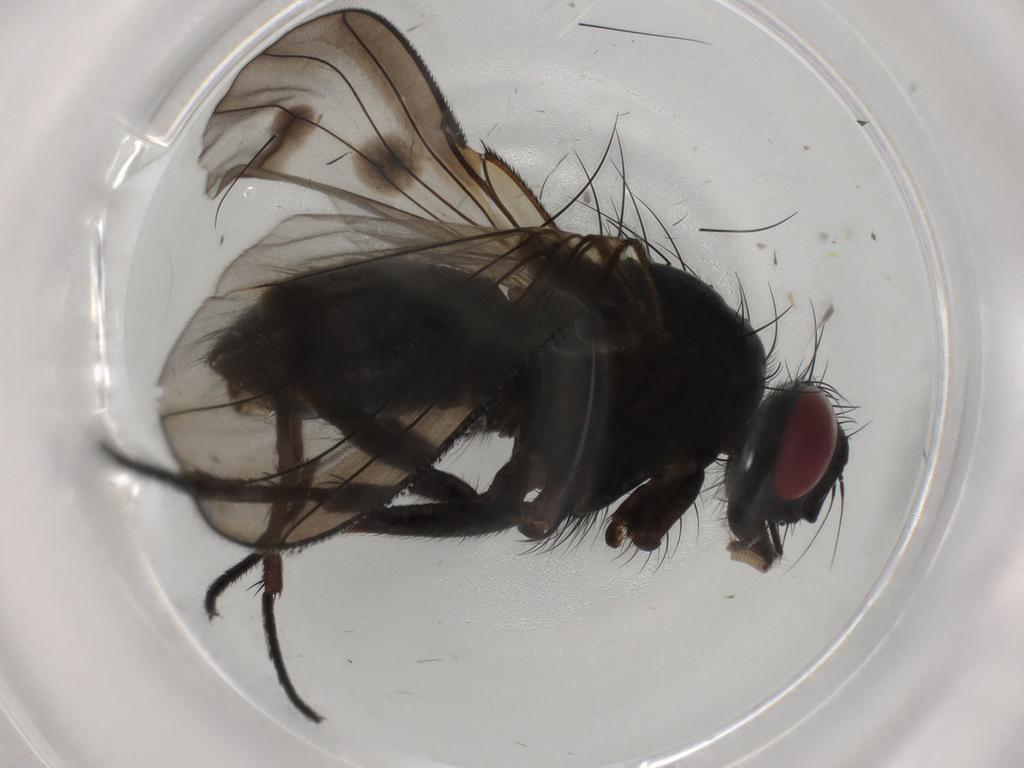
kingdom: Animalia
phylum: Arthropoda
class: Insecta
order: Diptera
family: Muscidae
